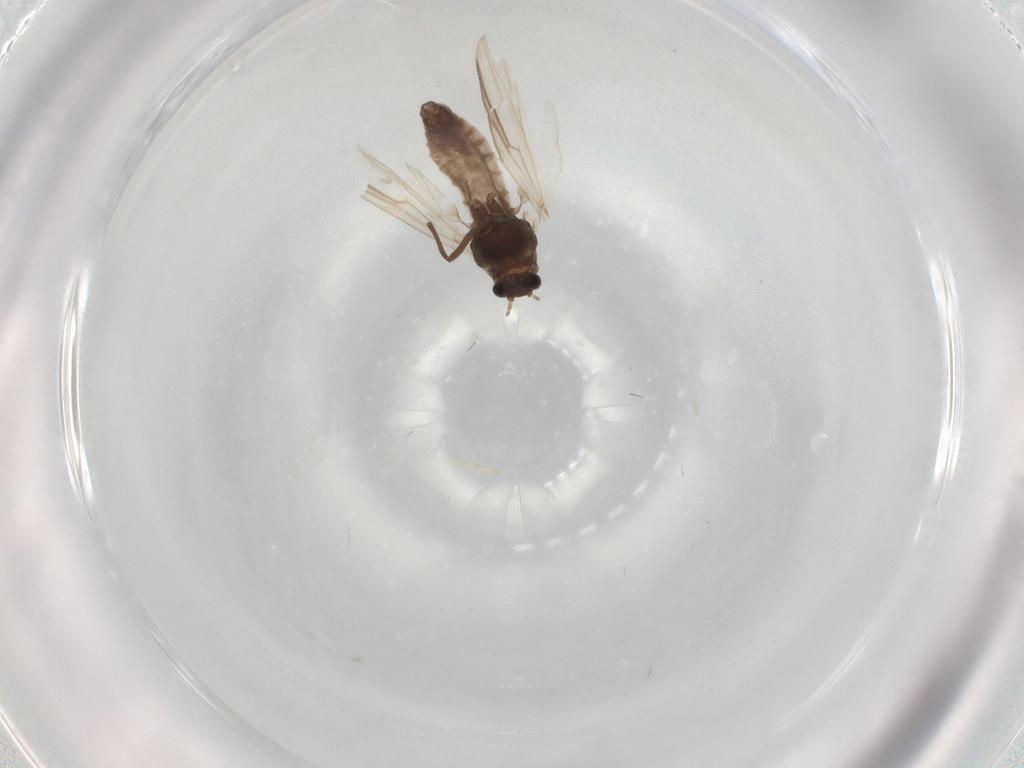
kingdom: Animalia
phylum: Arthropoda
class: Insecta
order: Diptera
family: Chironomidae
